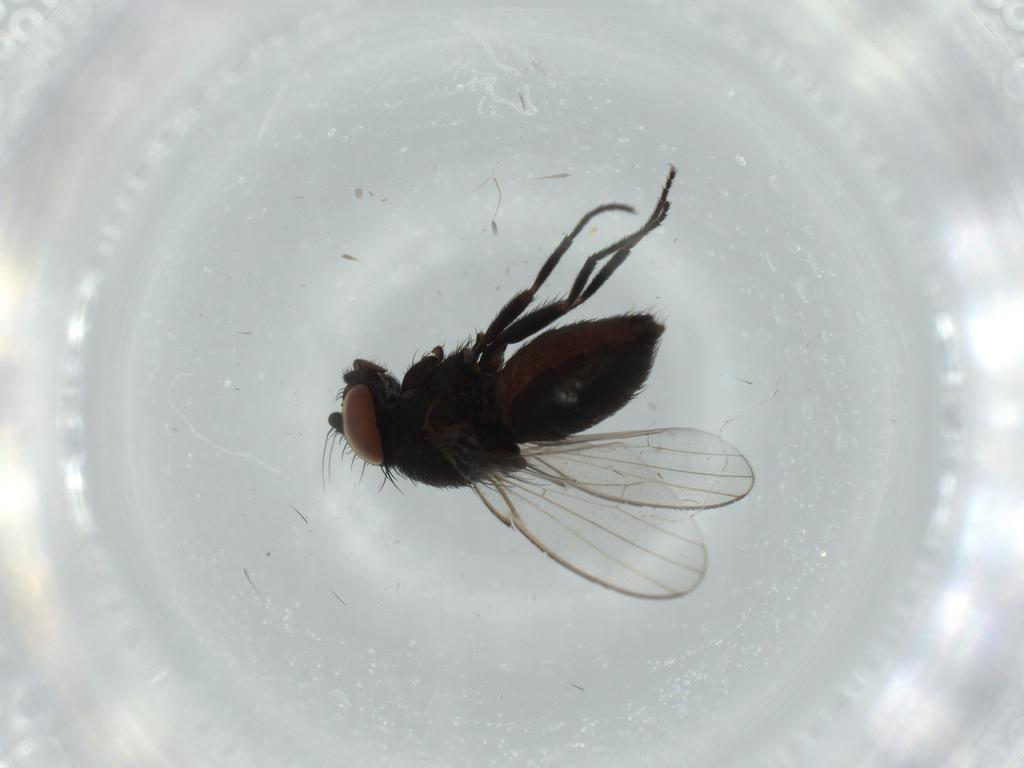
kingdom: Animalia
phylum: Arthropoda
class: Insecta
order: Diptera
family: Milichiidae
